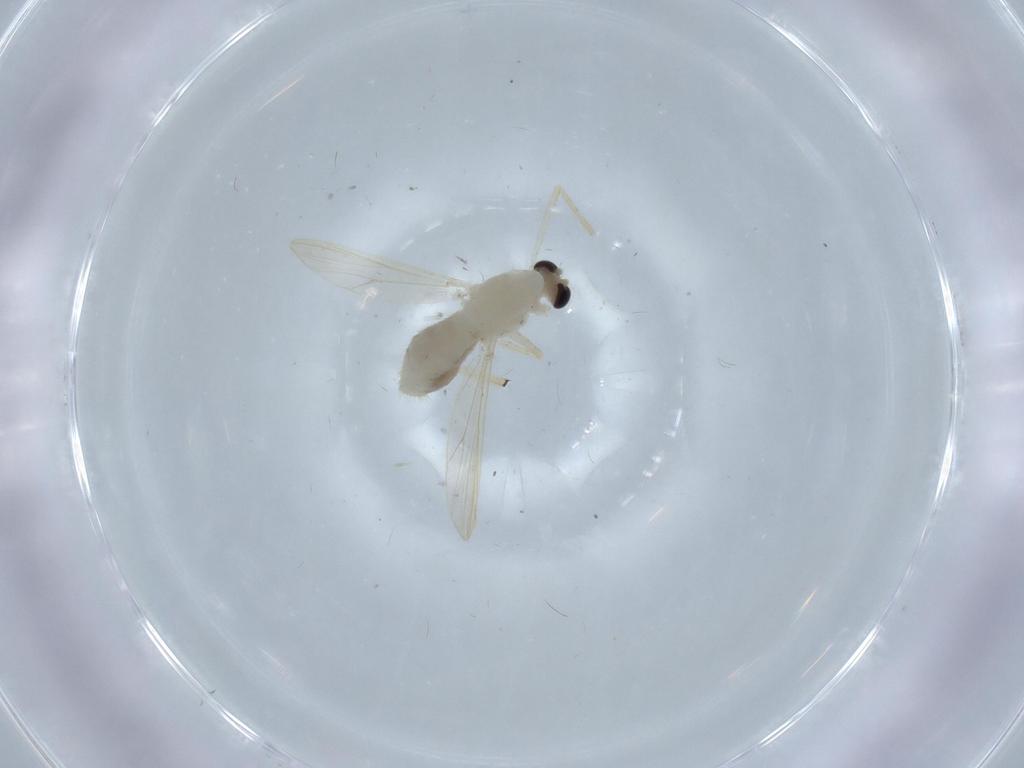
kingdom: Animalia
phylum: Arthropoda
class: Insecta
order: Diptera
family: Chironomidae
